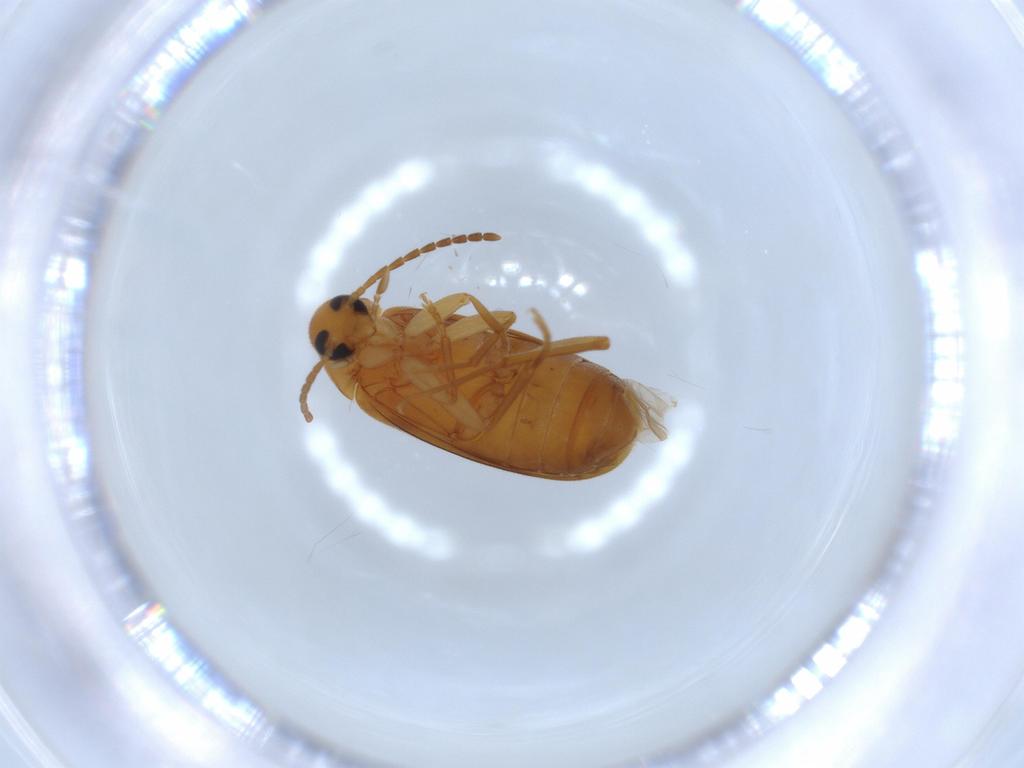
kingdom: Animalia
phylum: Arthropoda
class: Insecta
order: Coleoptera
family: Scraptiidae
